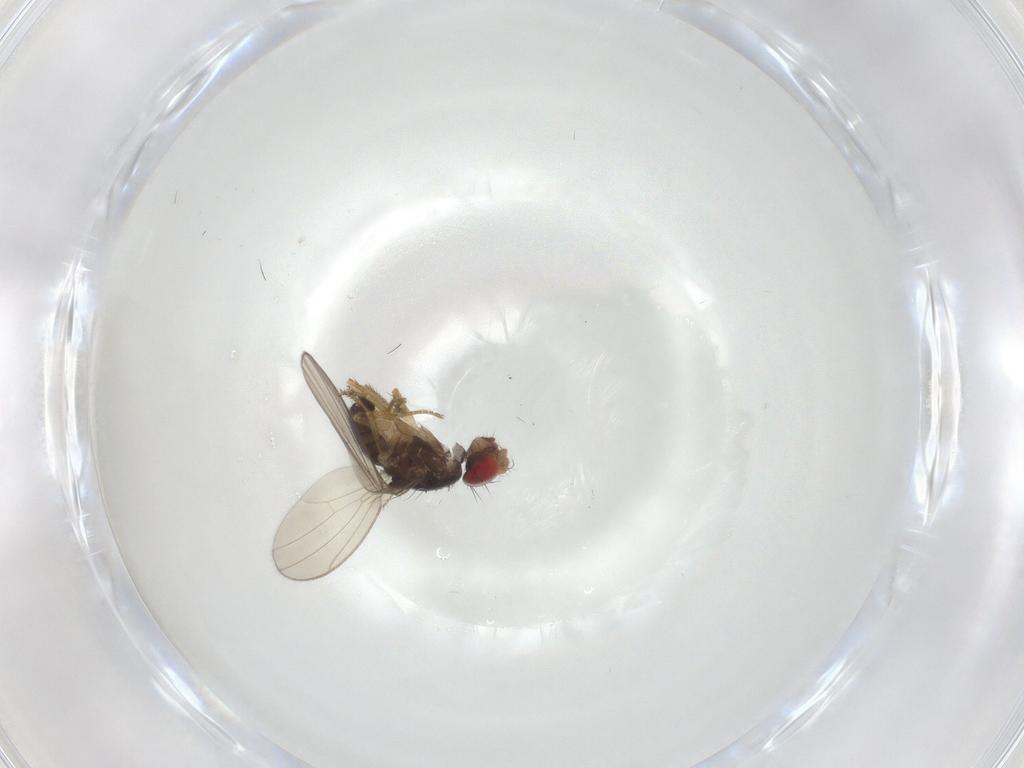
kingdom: Animalia
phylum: Arthropoda
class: Insecta
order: Diptera
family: Drosophilidae
